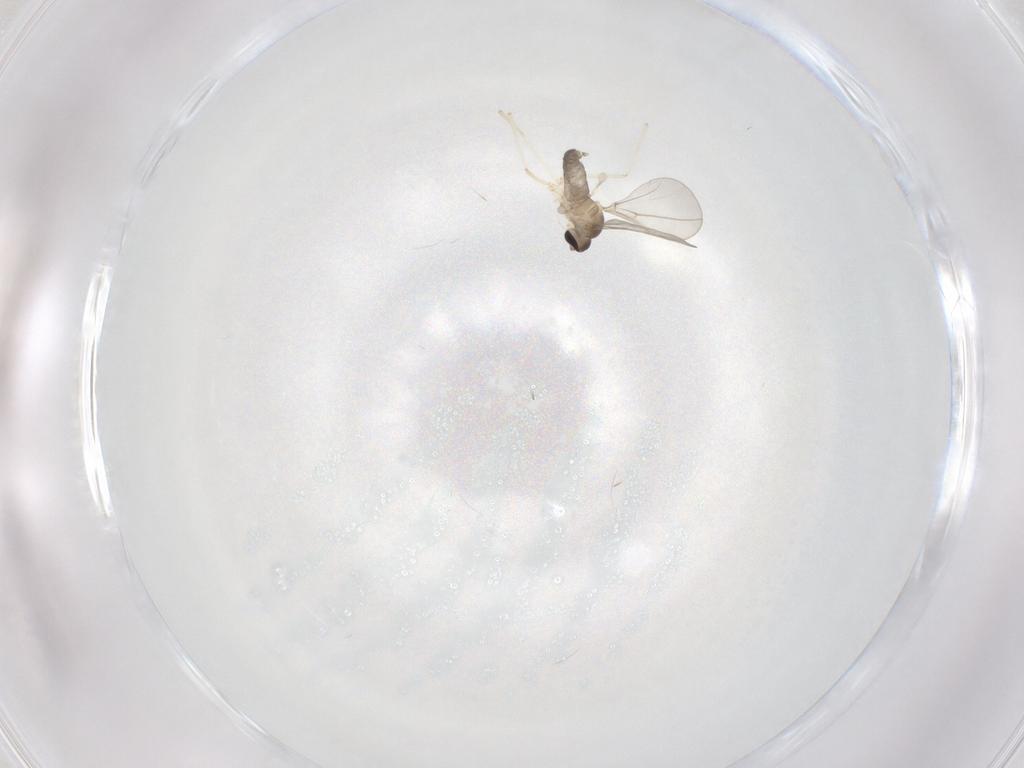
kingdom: Animalia
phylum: Arthropoda
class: Insecta
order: Diptera
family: Cecidomyiidae
